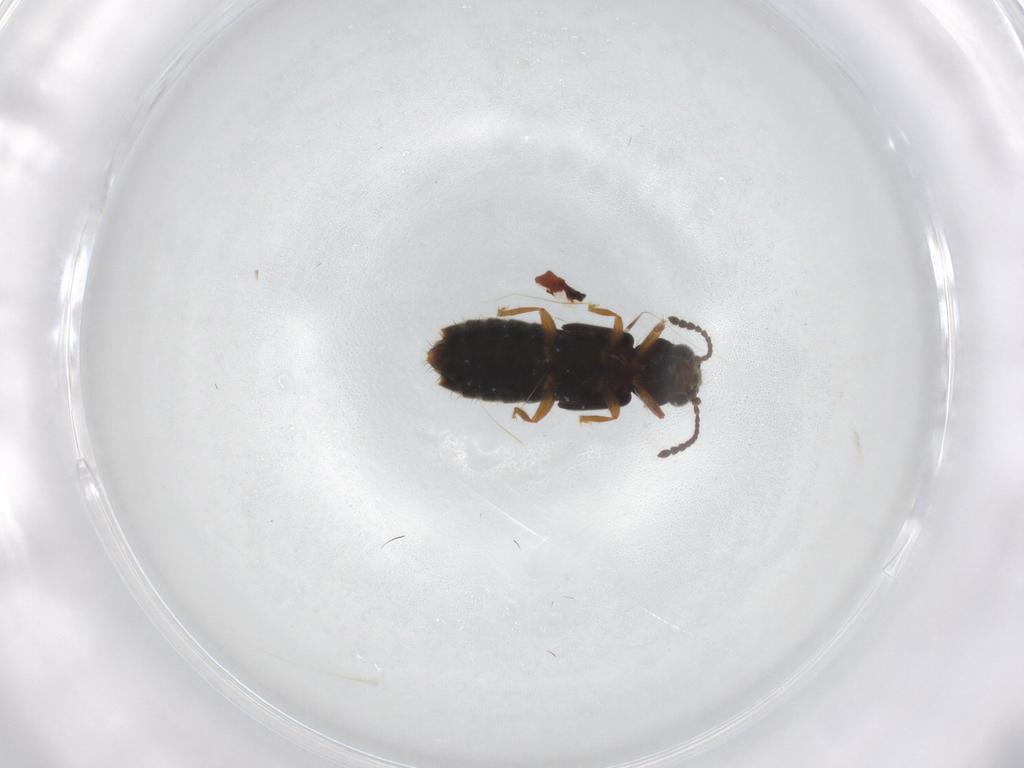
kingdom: Animalia
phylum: Arthropoda
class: Insecta
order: Coleoptera
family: Staphylinidae
